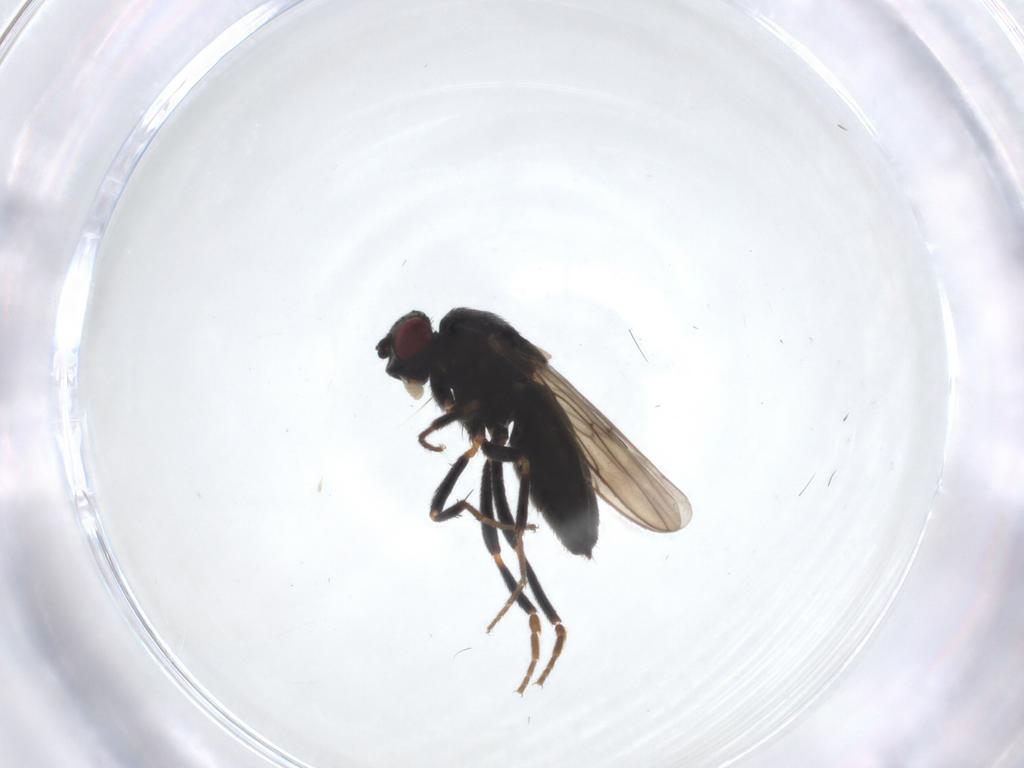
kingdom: Animalia
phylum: Arthropoda
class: Insecta
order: Diptera
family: Sphaeroceridae
